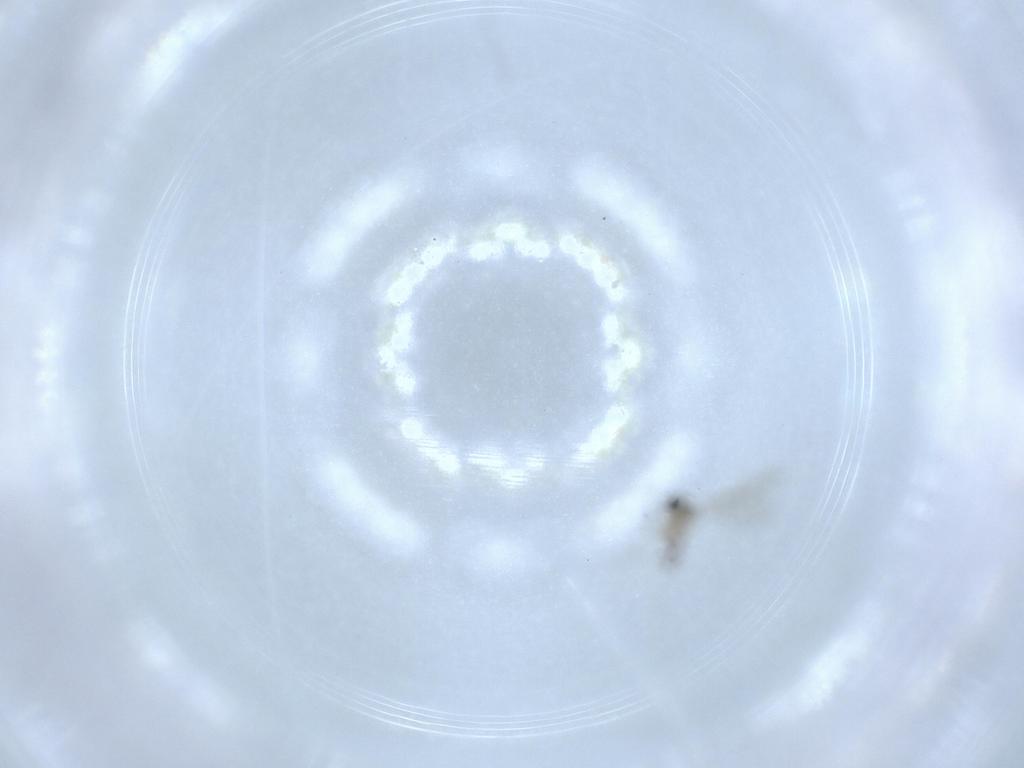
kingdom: Animalia
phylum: Arthropoda
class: Insecta
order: Diptera
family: Cecidomyiidae
